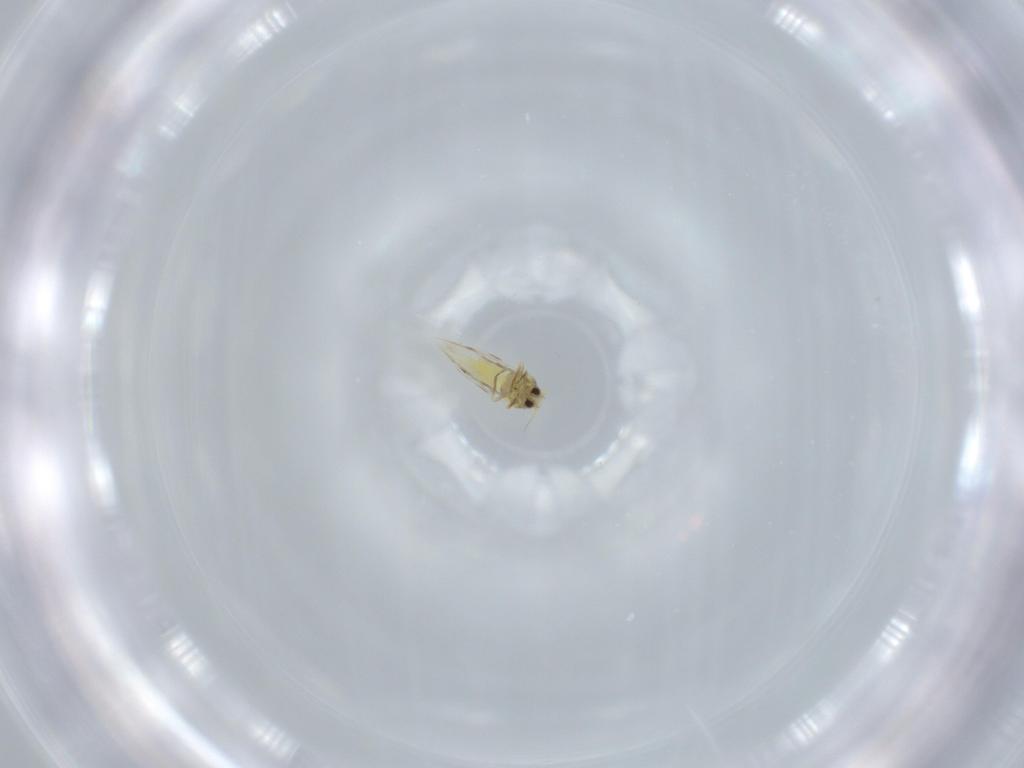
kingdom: Animalia
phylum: Arthropoda
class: Insecta
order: Hemiptera
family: Aleyrodidae
